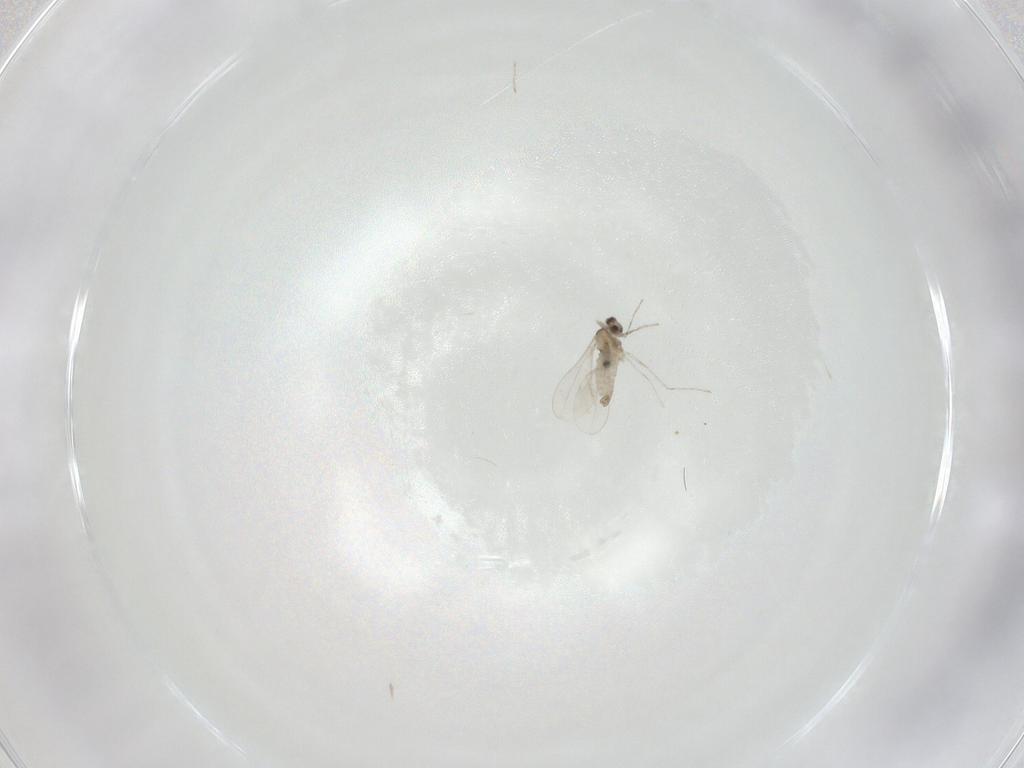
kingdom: Animalia
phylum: Arthropoda
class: Insecta
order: Diptera
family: Cecidomyiidae
